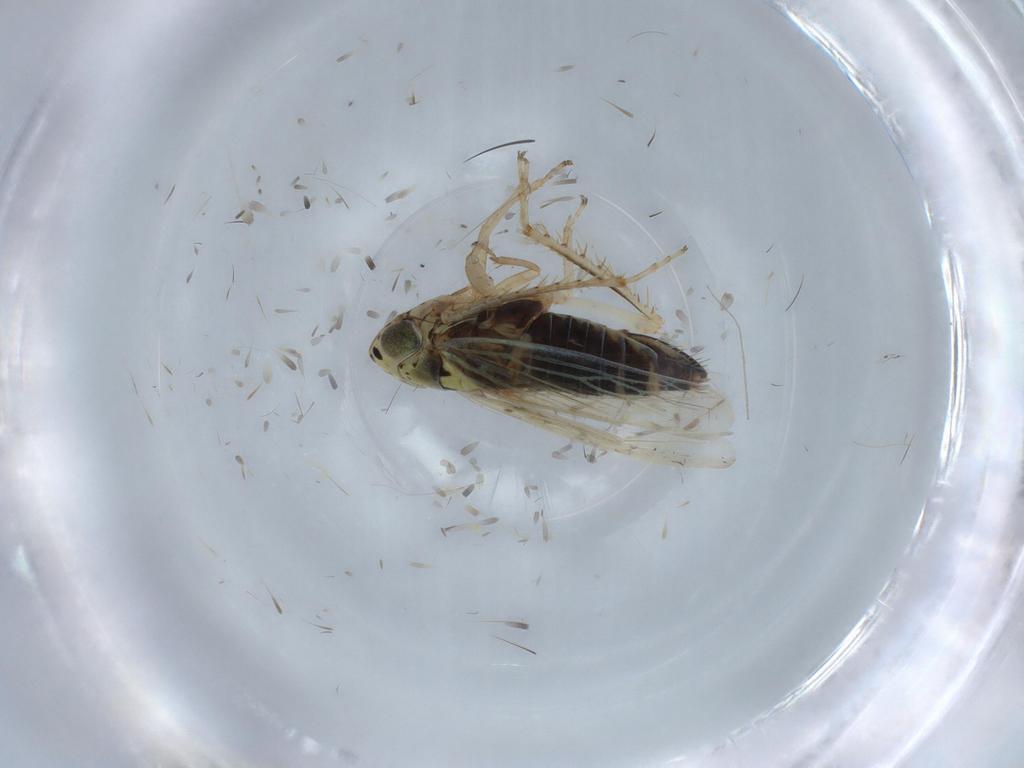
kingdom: Animalia
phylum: Arthropoda
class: Insecta
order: Hemiptera
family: Cicadellidae
